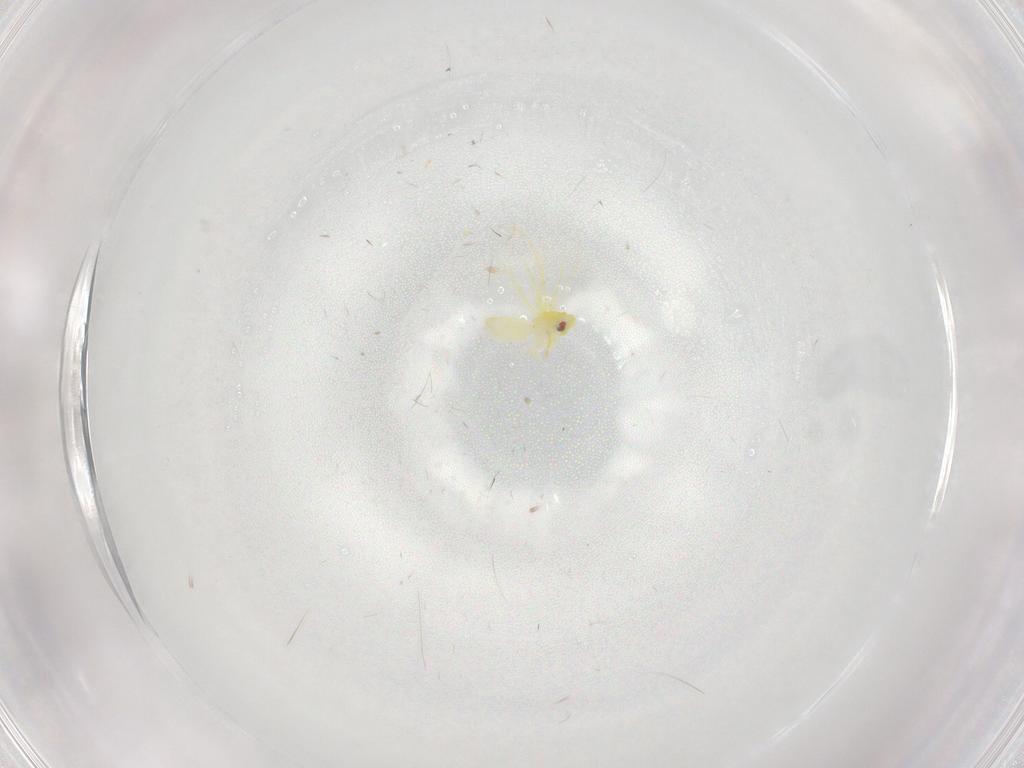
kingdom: Animalia
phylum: Arthropoda
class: Insecta
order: Hemiptera
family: Aleyrodidae
